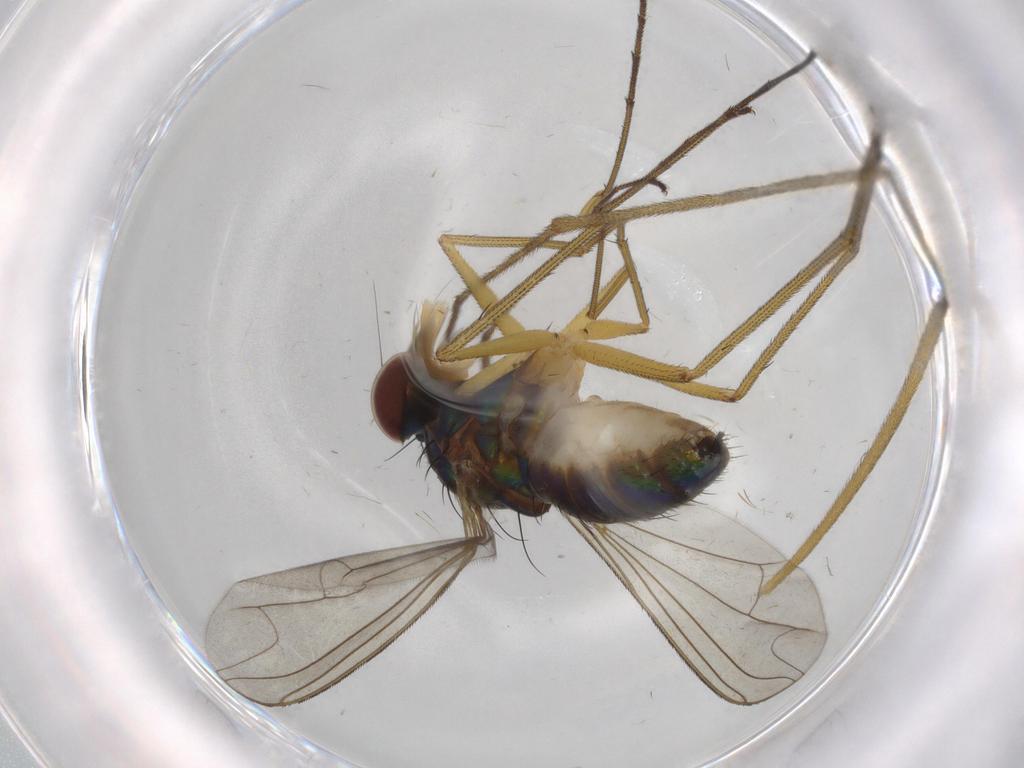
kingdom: Animalia
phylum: Arthropoda
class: Insecta
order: Diptera
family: Dolichopodidae
